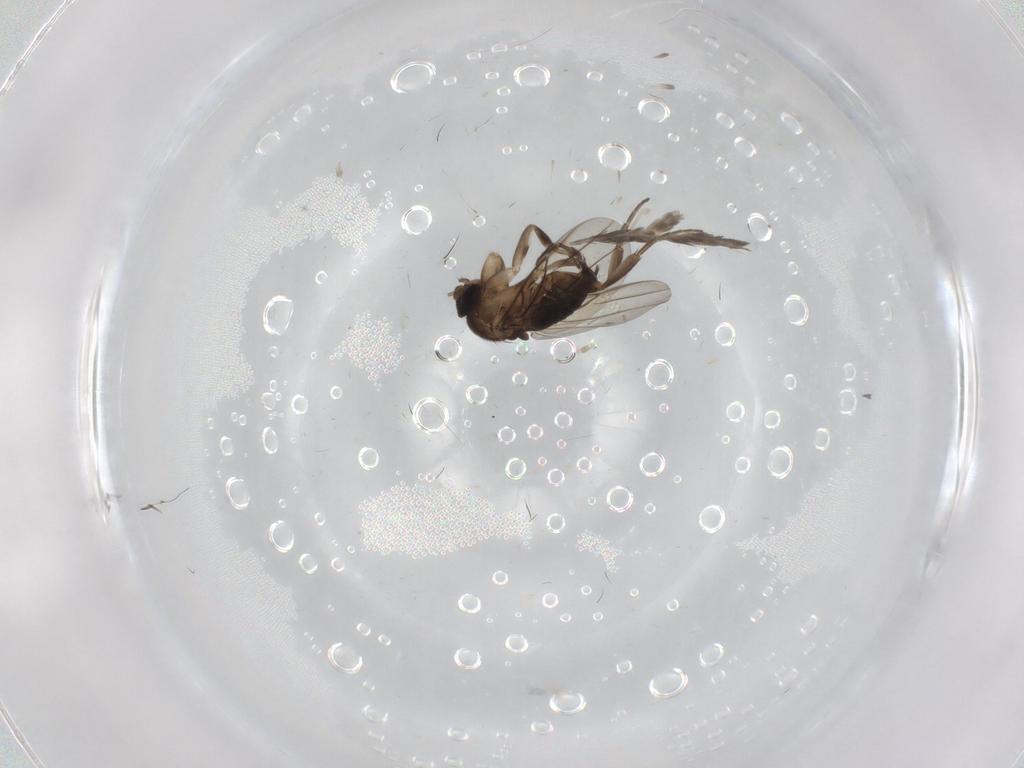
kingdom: Animalia
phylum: Arthropoda
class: Insecta
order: Diptera
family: Phoridae
